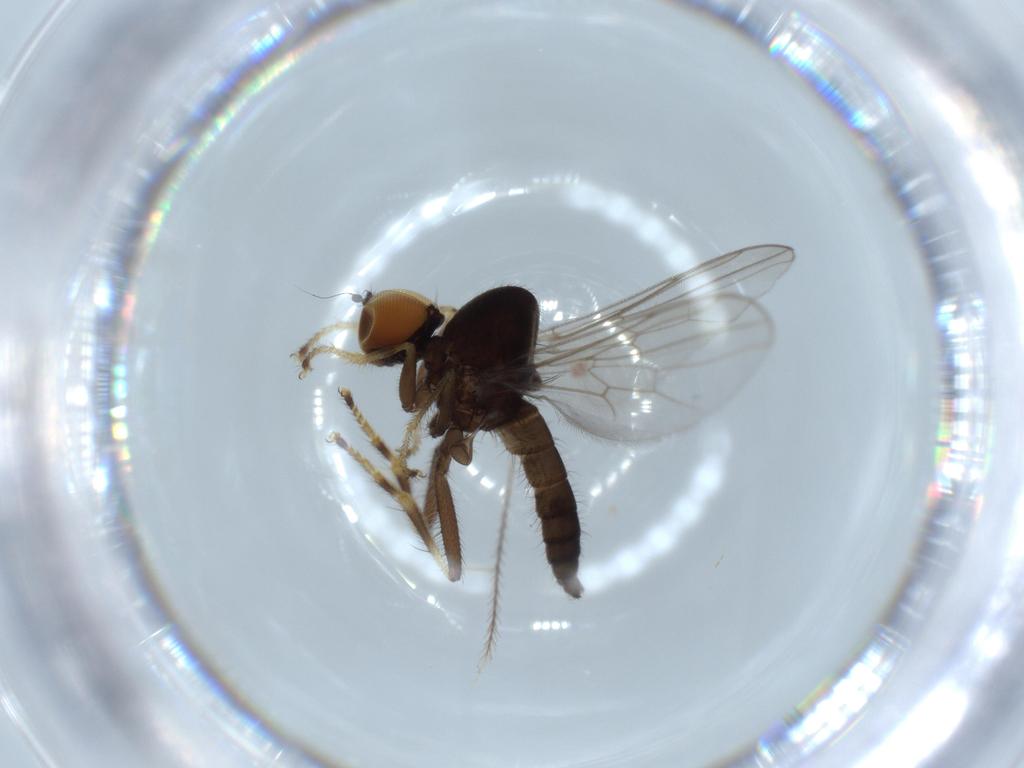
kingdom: Animalia
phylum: Arthropoda
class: Insecta
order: Diptera
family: Hybotidae
